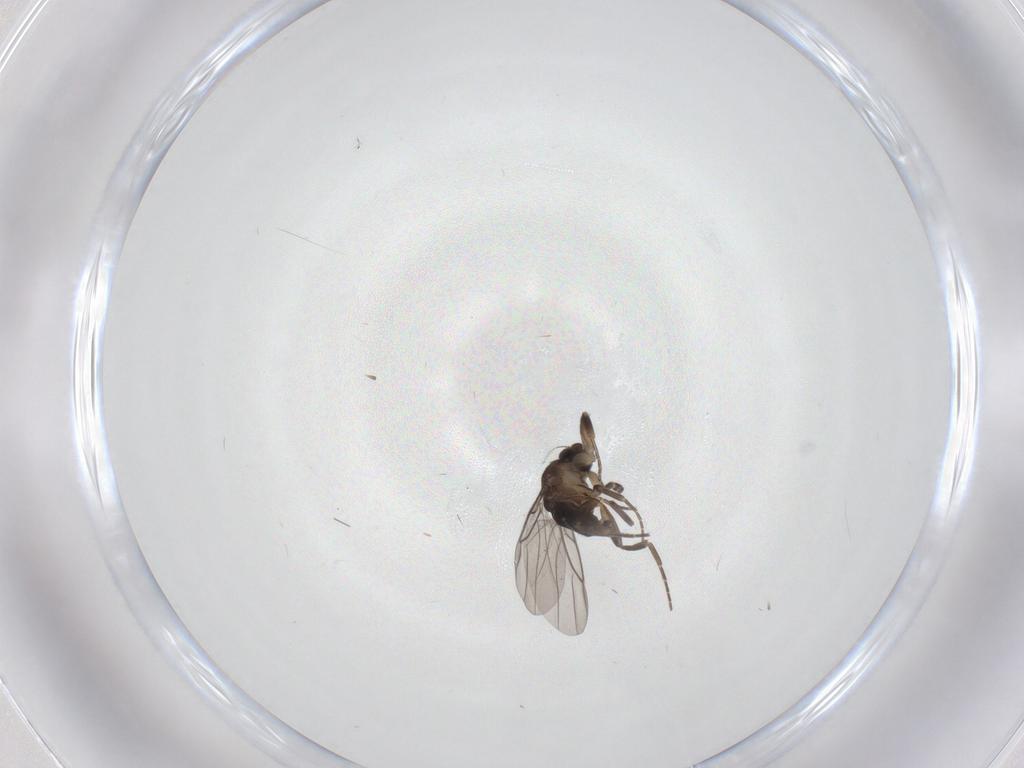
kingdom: Animalia
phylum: Arthropoda
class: Insecta
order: Diptera
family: Phoridae
